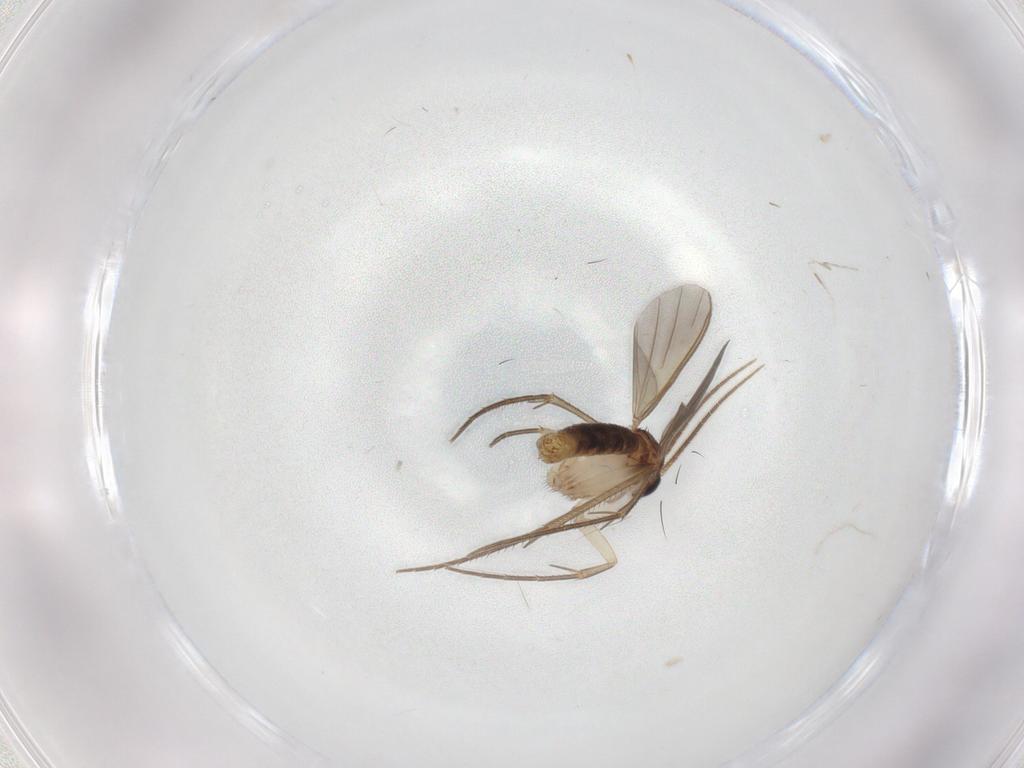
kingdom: Animalia
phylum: Arthropoda
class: Insecta
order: Diptera
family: Mycetophilidae
